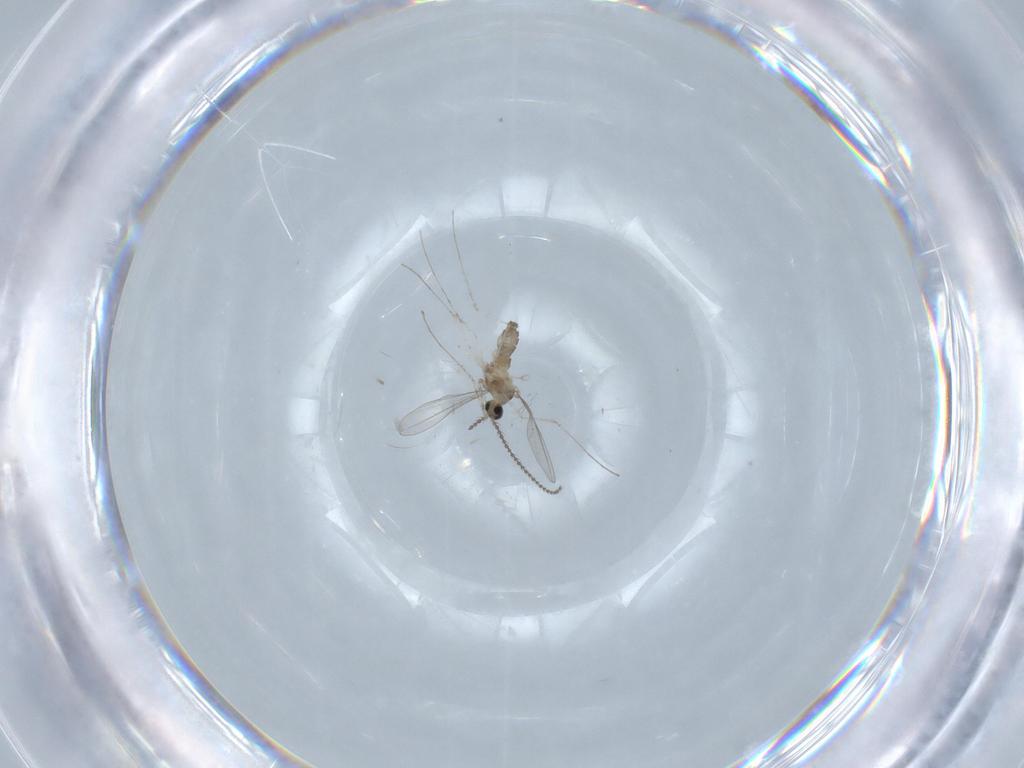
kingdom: Animalia
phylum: Arthropoda
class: Insecta
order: Diptera
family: Cecidomyiidae
